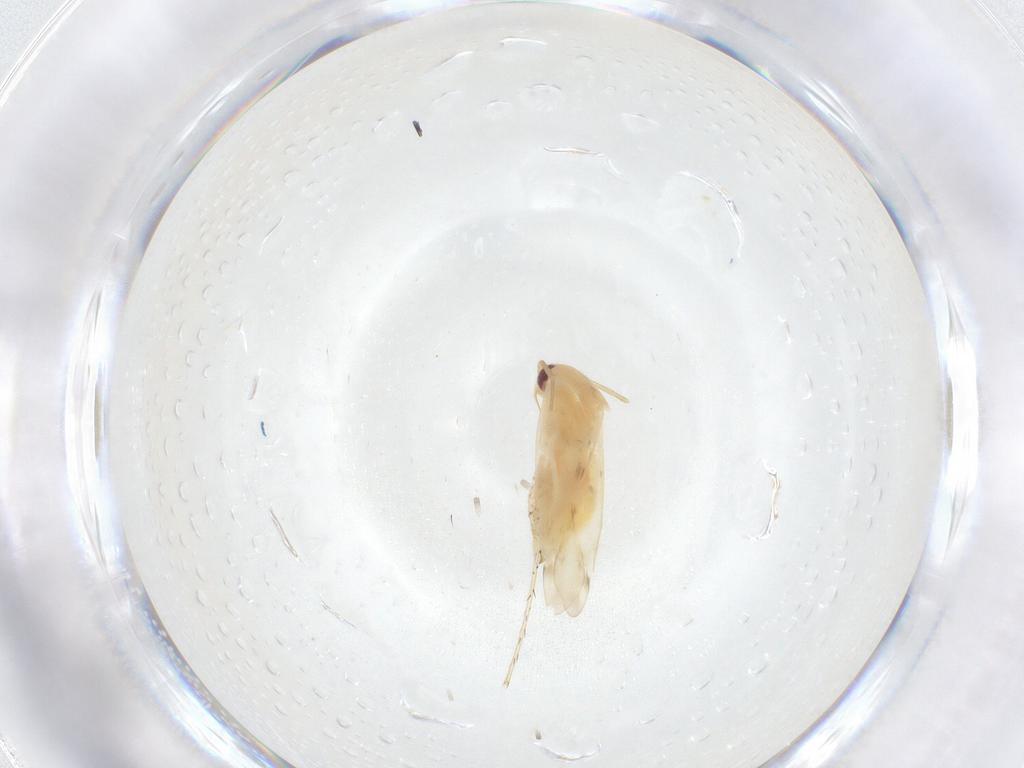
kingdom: Animalia
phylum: Arthropoda
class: Insecta
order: Hemiptera
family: Miridae
